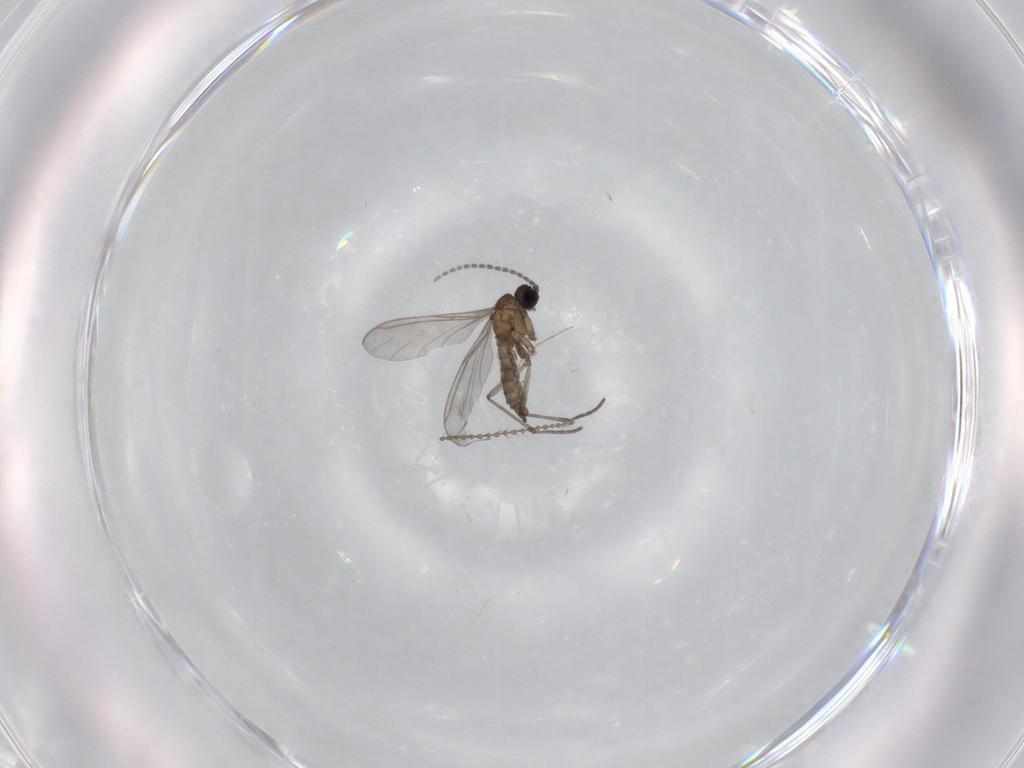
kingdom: Animalia
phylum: Arthropoda
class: Insecta
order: Diptera
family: Sciaridae
